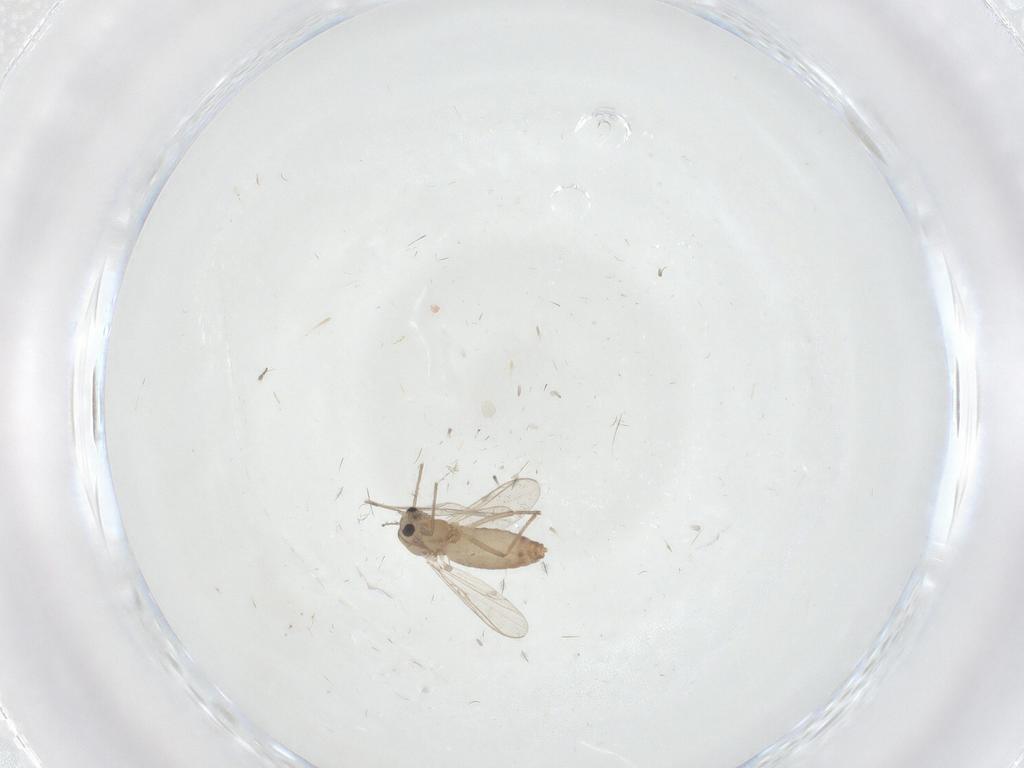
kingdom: Animalia
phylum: Arthropoda
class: Insecta
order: Diptera
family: Chironomidae
